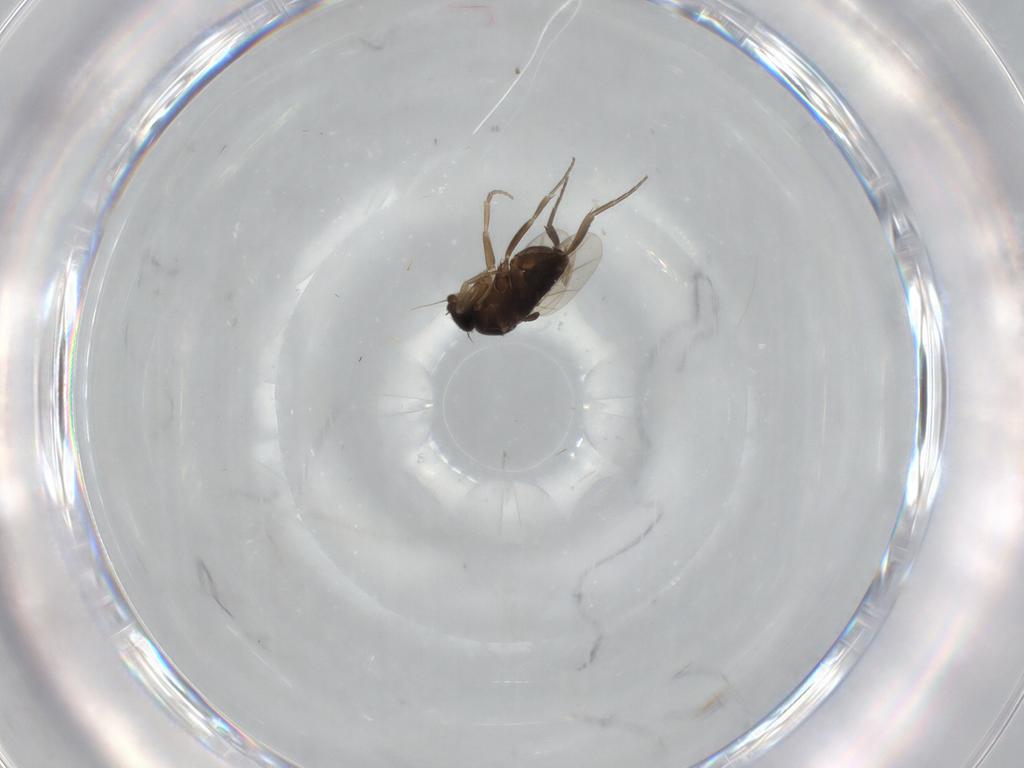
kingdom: Animalia
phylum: Arthropoda
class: Insecta
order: Diptera
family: Phoridae
